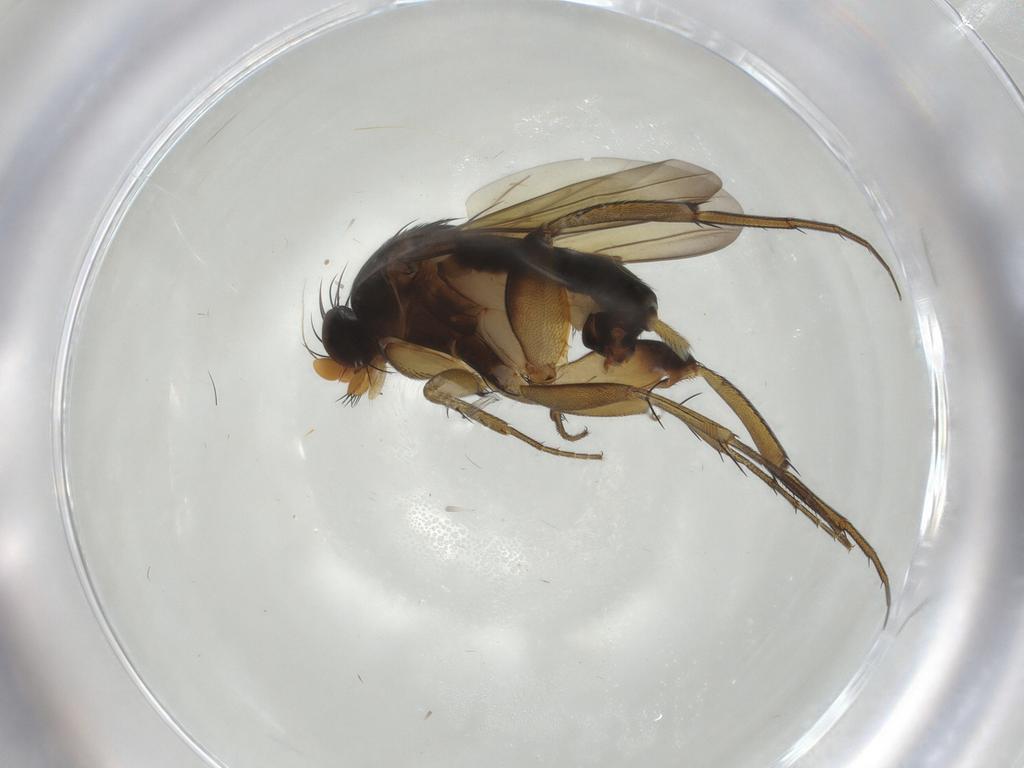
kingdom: Animalia
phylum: Arthropoda
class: Insecta
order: Diptera
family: Phoridae
